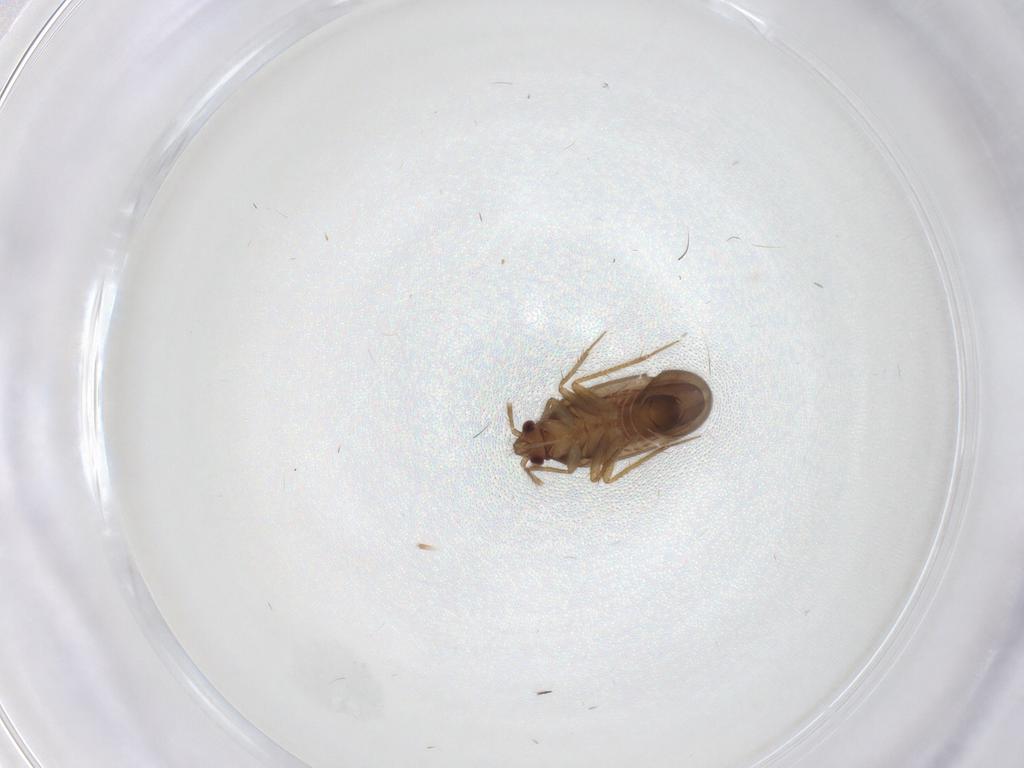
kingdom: Animalia
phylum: Arthropoda
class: Insecta
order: Hemiptera
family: Ceratocombidae
